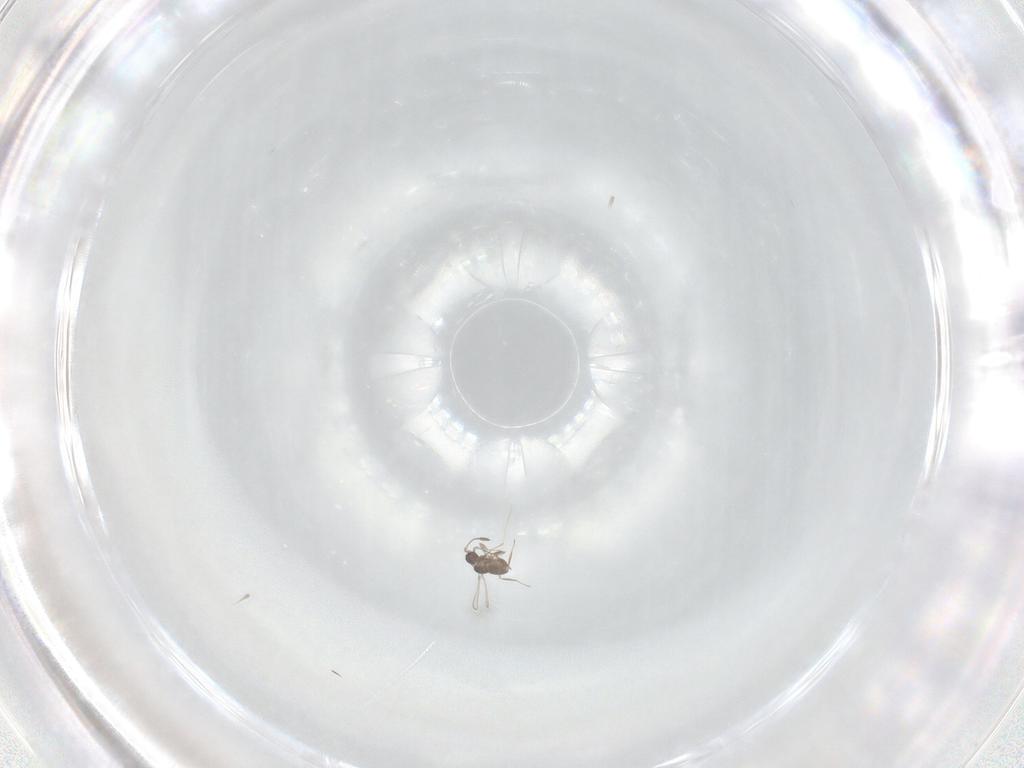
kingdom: Animalia
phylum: Arthropoda
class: Insecta
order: Hymenoptera
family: Mymaridae
